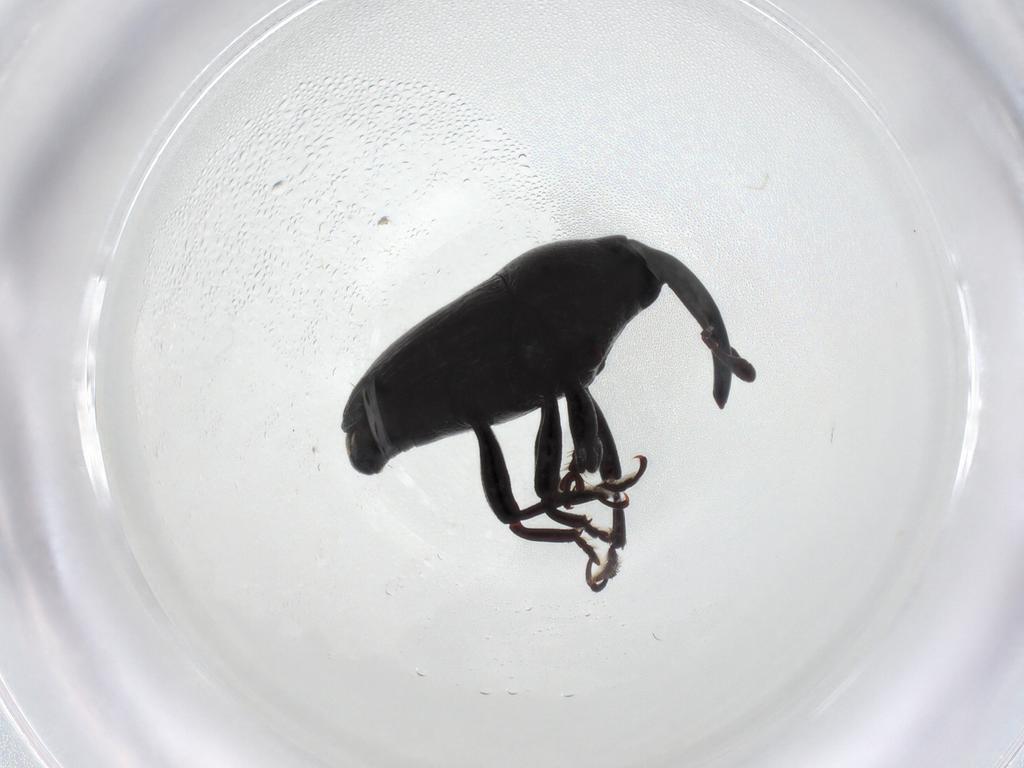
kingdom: Animalia
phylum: Arthropoda
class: Insecta
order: Coleoptera
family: Curculionidae
